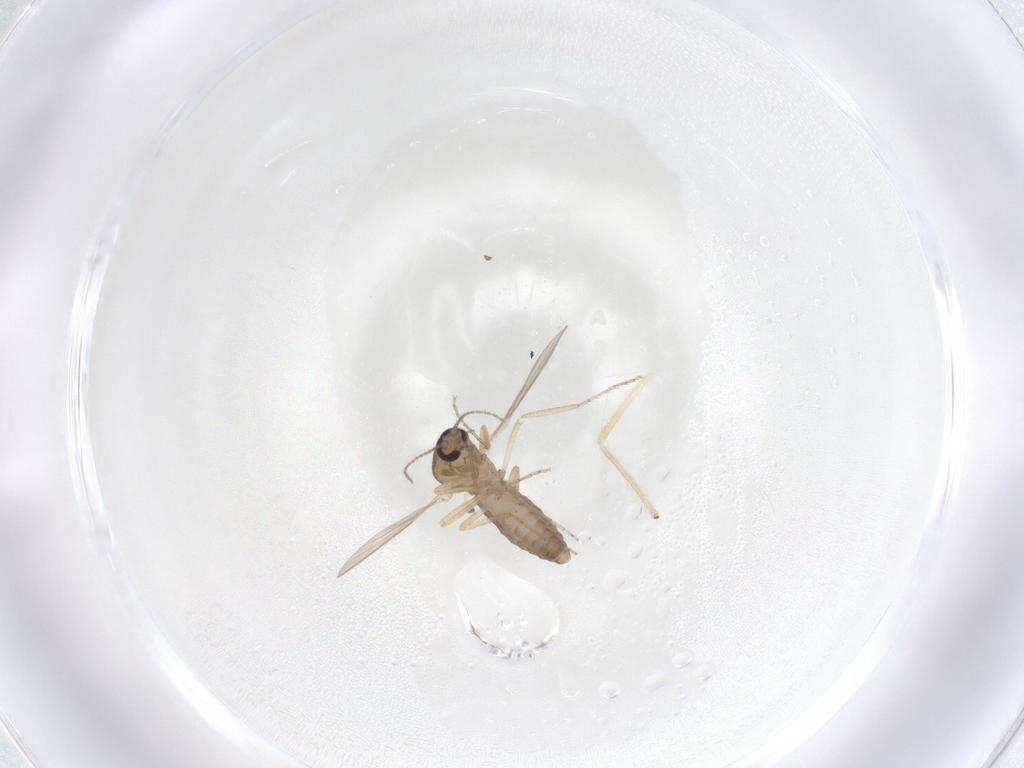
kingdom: Animalia
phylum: Arthropoda
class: Insecta
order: Diptera
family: Ceratopogonidae
